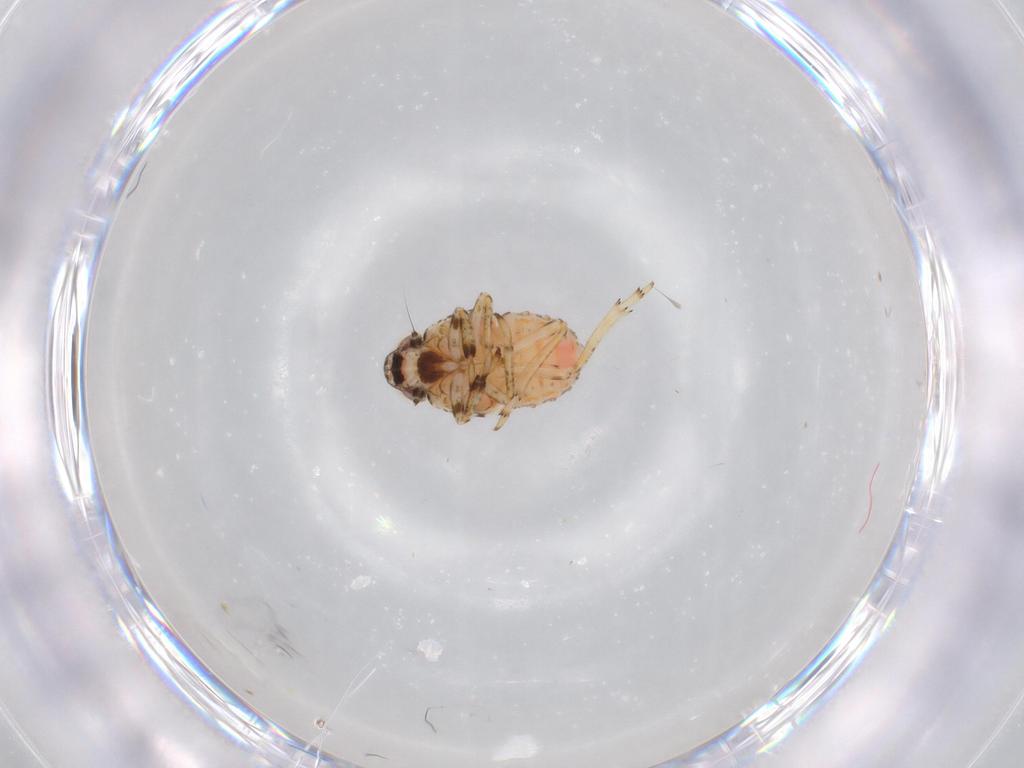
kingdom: Animalia
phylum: Arthropoda
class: Insecta
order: Hemiptera
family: Issidae
